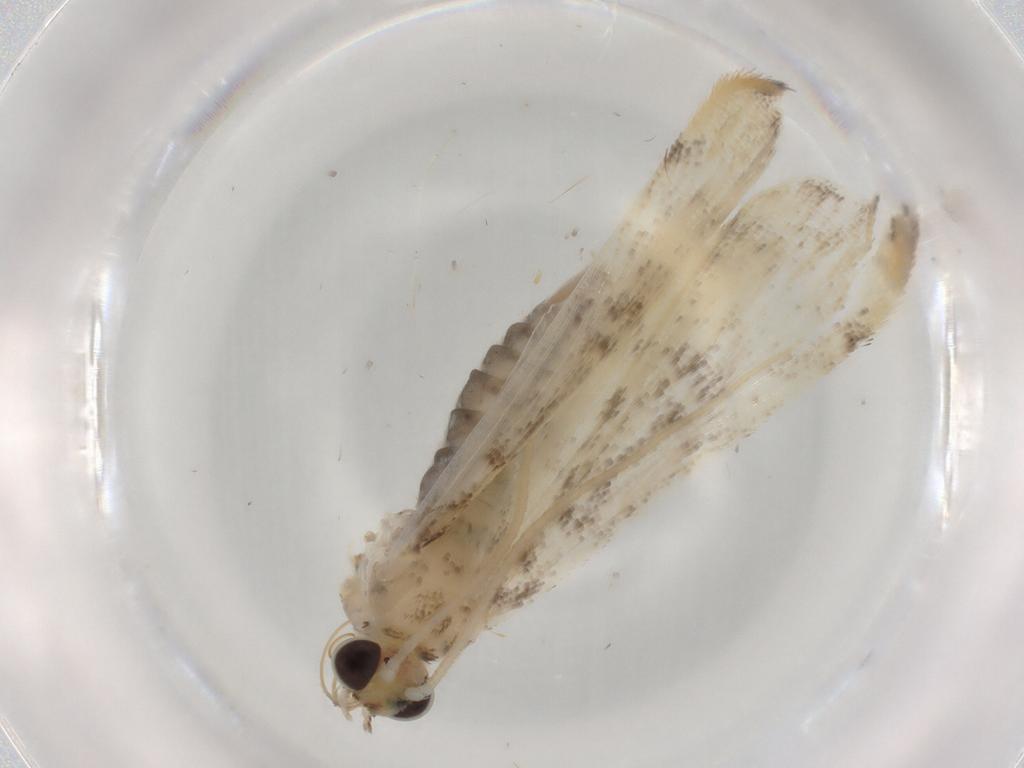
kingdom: Animalia
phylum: Arthropoda
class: Insecta
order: Lepidoptera
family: Crambidae
